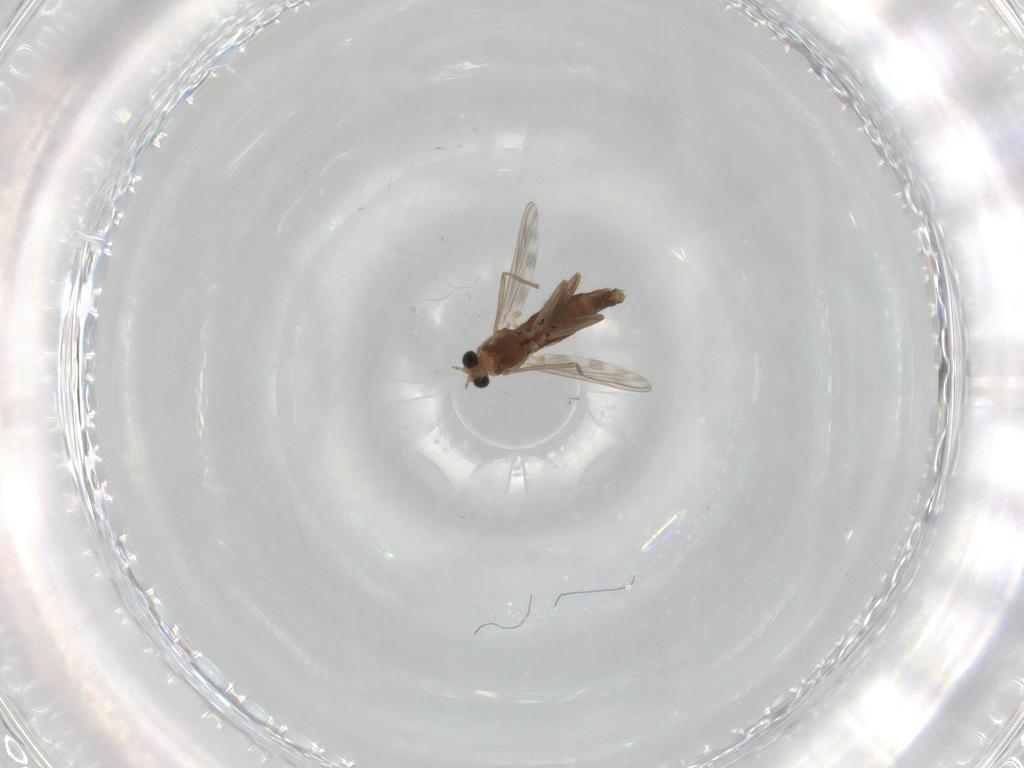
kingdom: Animalia
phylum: Arthropoda
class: Insecta
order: Diptera
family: Chironomidae
